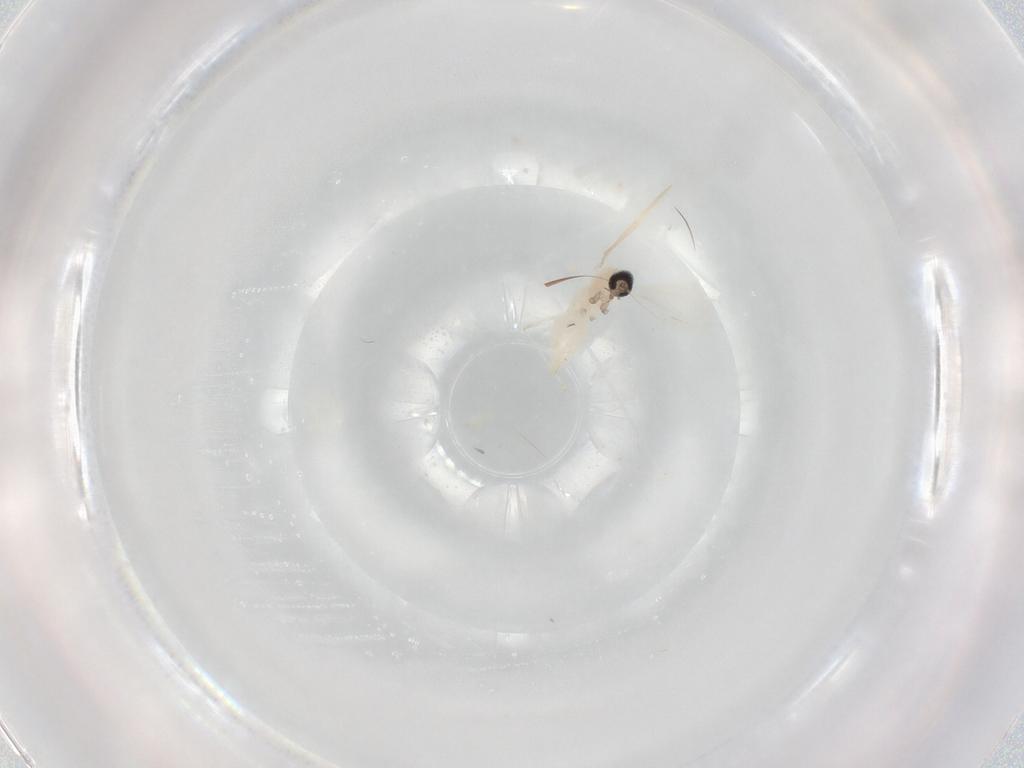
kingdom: Animalia
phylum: Arthropoda
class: Insecta
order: Diptera
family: Cecidomyiidae
